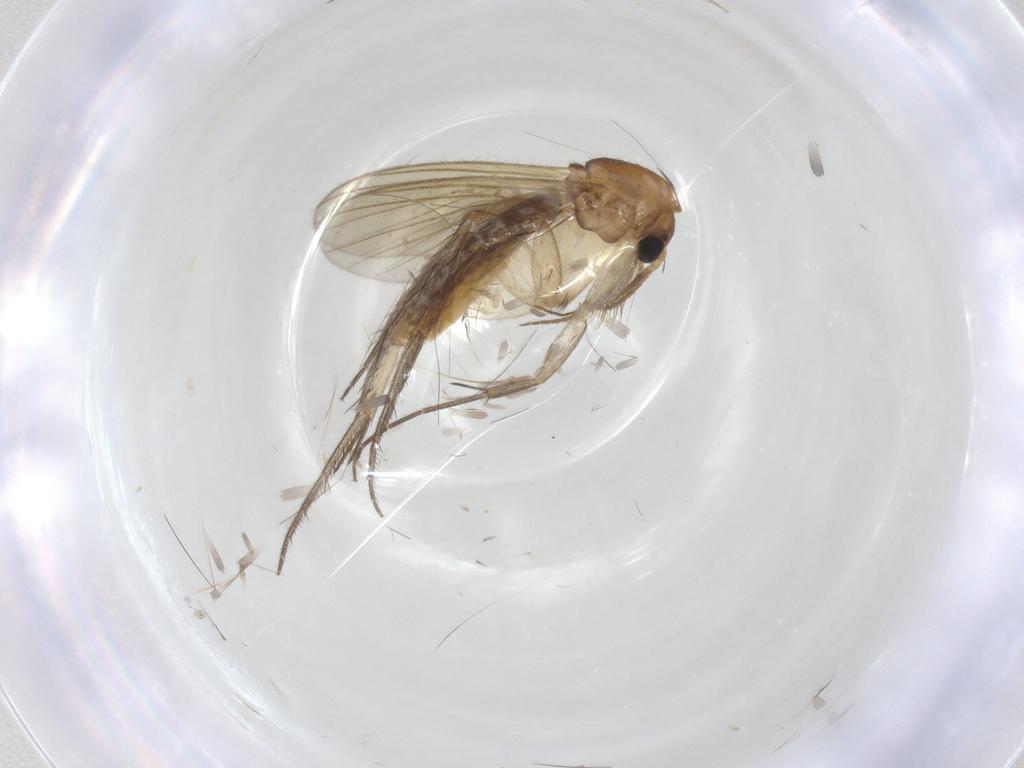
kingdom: Animalia
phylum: Arthropoda
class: Insecta
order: Diptera
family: Mycetophilidae
